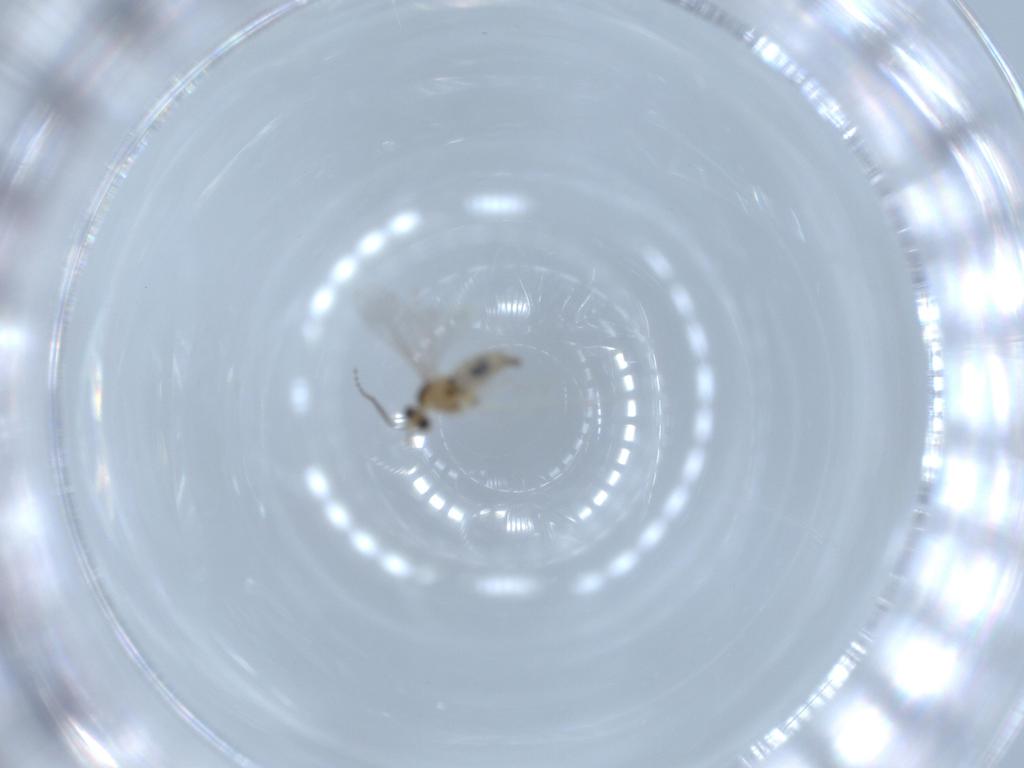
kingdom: Animalia
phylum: Arthropoda
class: Insecta
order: Diptera
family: Cecidomyiidae
